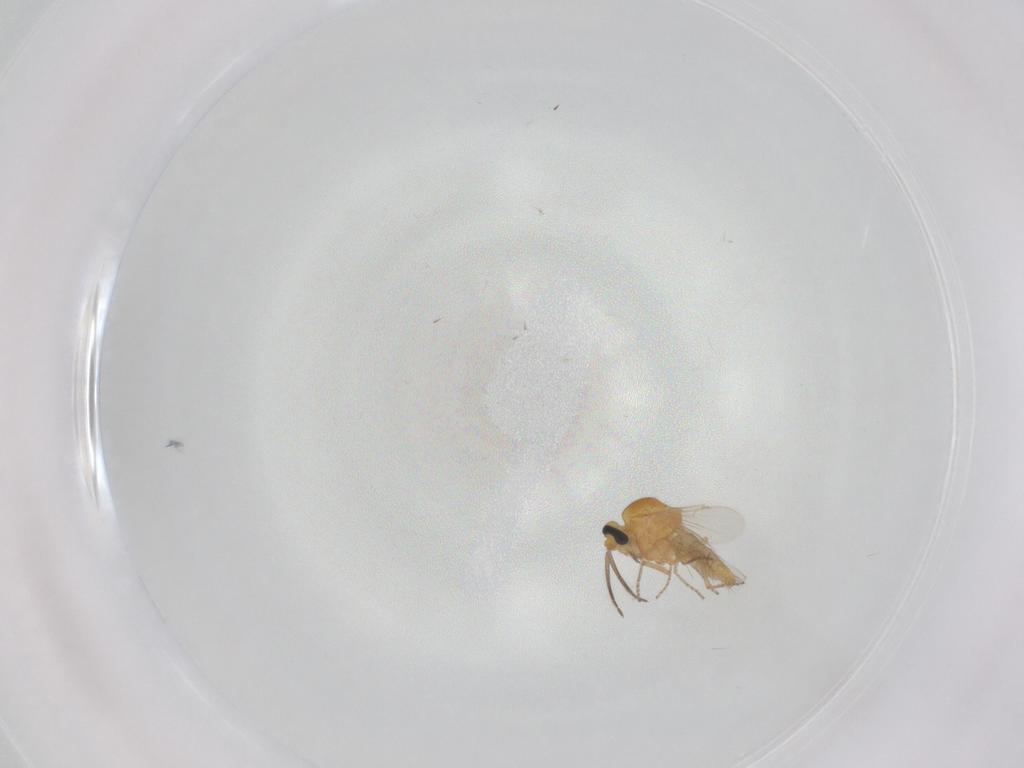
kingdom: Animalia
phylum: Arthropoda
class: Insecta
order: Diptera
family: Ceratopogonidae
